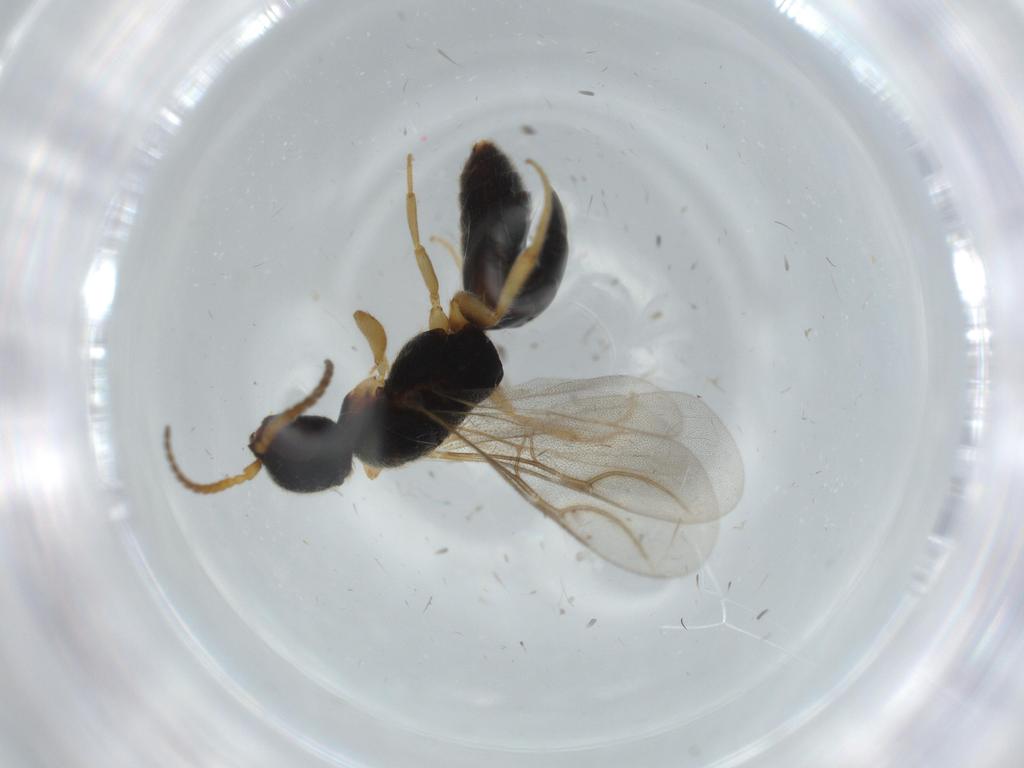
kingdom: Animalia
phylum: Arthropoda
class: Insecta
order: Hymenoptera
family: Bethylidae
